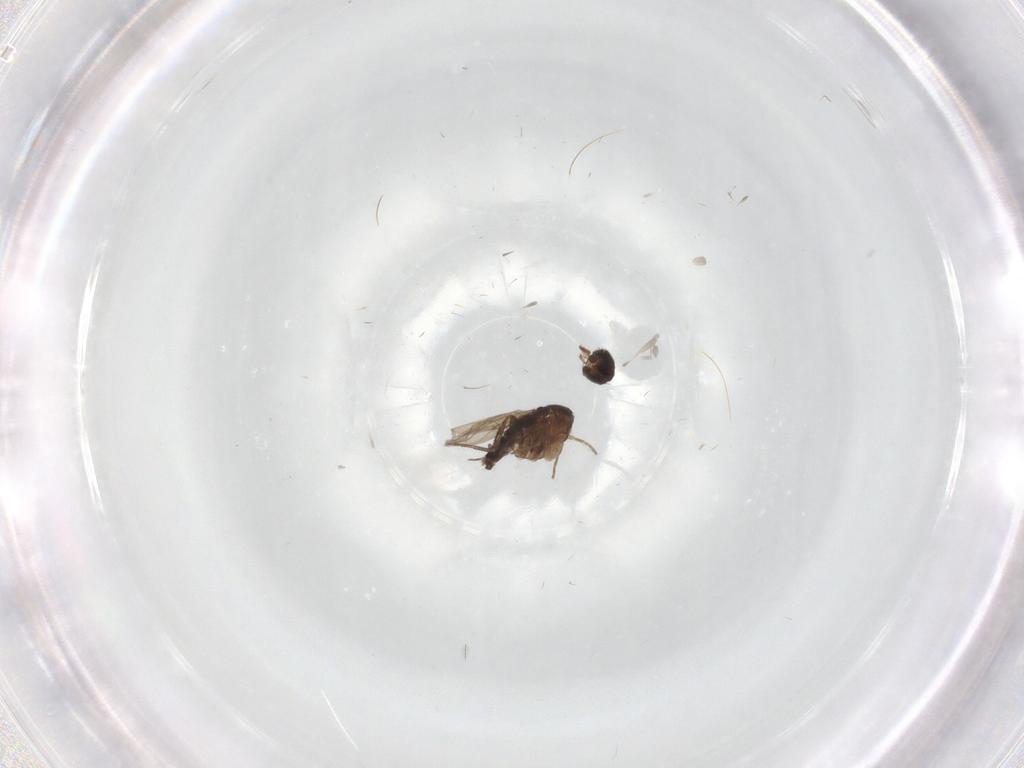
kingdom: Animalia
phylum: Arthropoda
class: Insecta
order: Diptera
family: Phoridae
